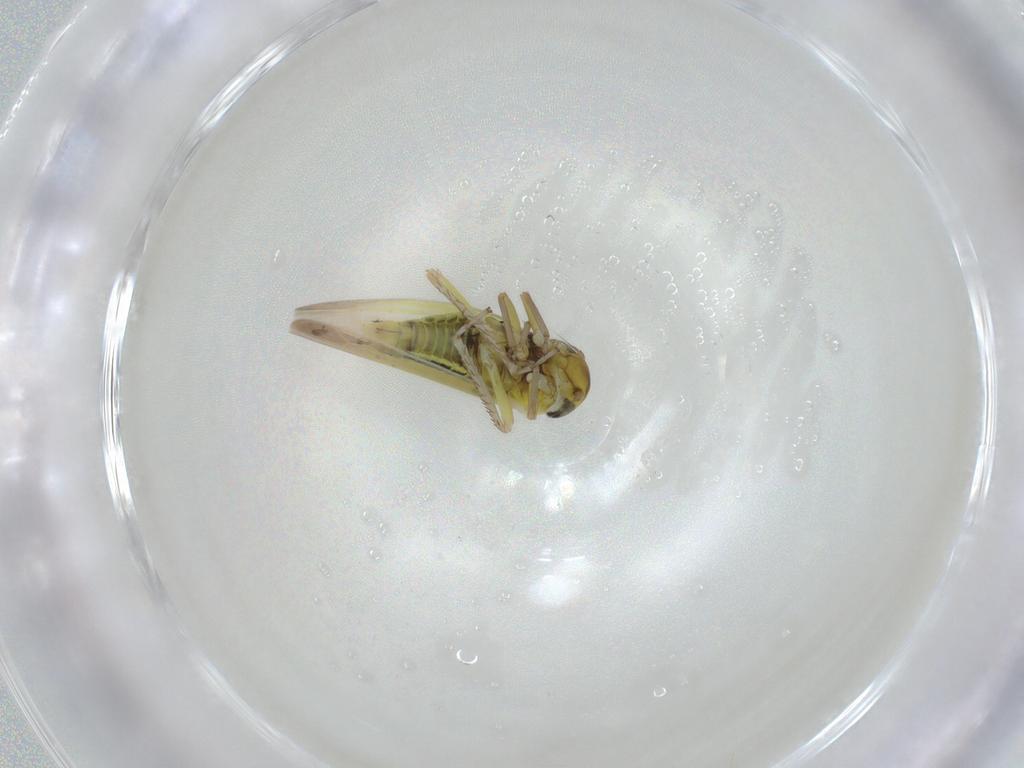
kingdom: Animalia
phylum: Arthropoda
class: Insecta
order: Hemiptera
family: Cicadellidae
